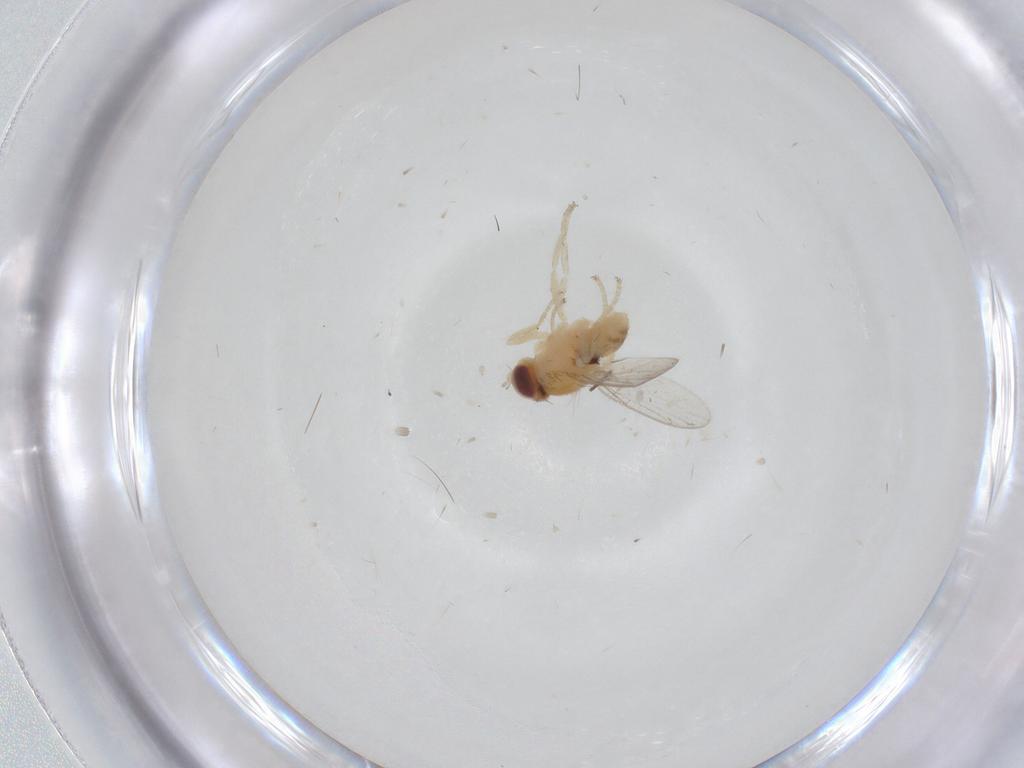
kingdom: Animalia
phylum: Arthropoda
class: Insecta
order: Diptera
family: Chloropidae
